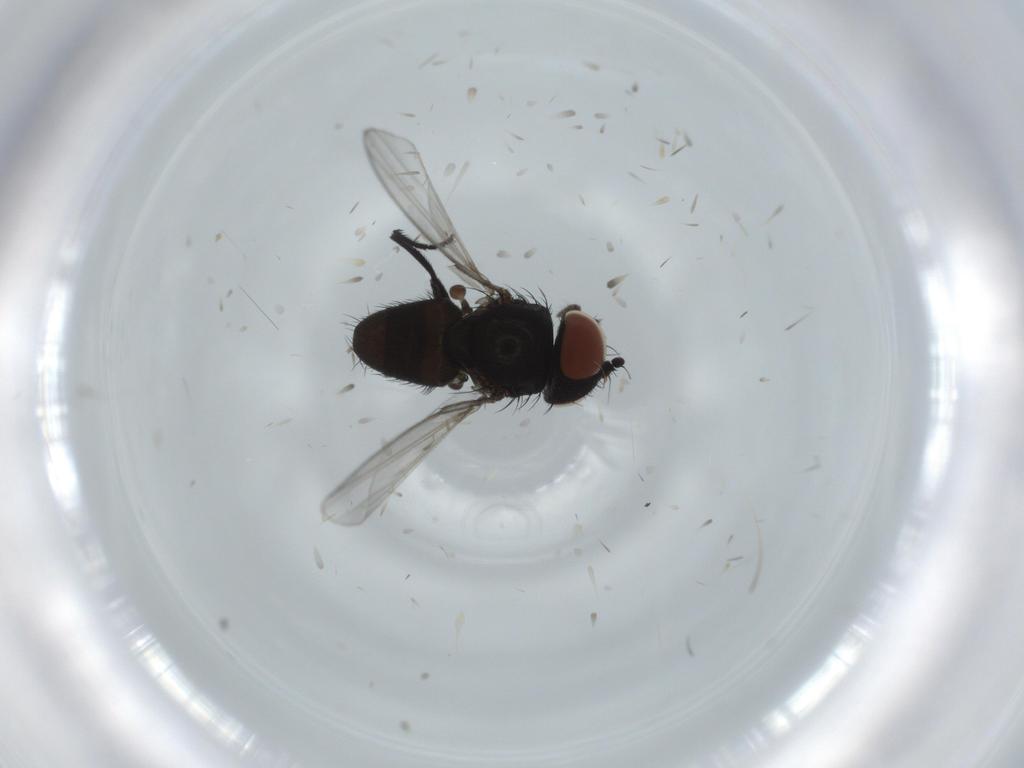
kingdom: Animalia
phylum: Arthropoda
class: Insecta
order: Diptera
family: Milichiidae
